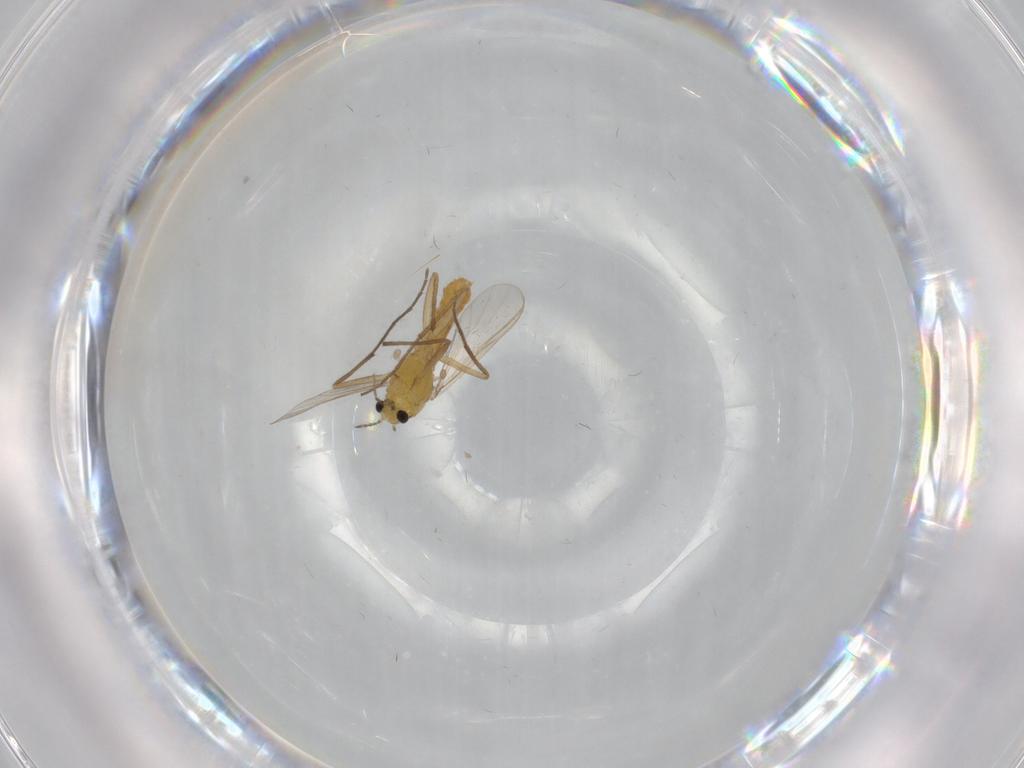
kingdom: Animalia
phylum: Arthropoda
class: Insecta
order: Diptera
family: Chironomidae
